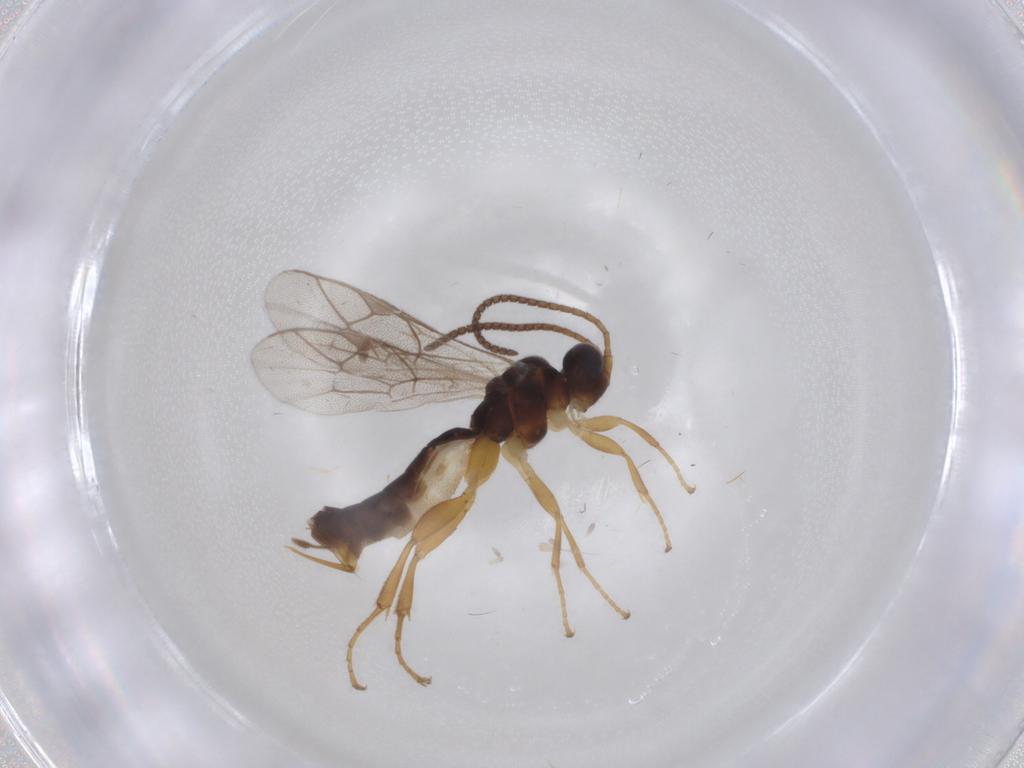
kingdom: Animalia
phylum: Arthropoda
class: Insecta
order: Hymenoptera
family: Ichneumonidae
